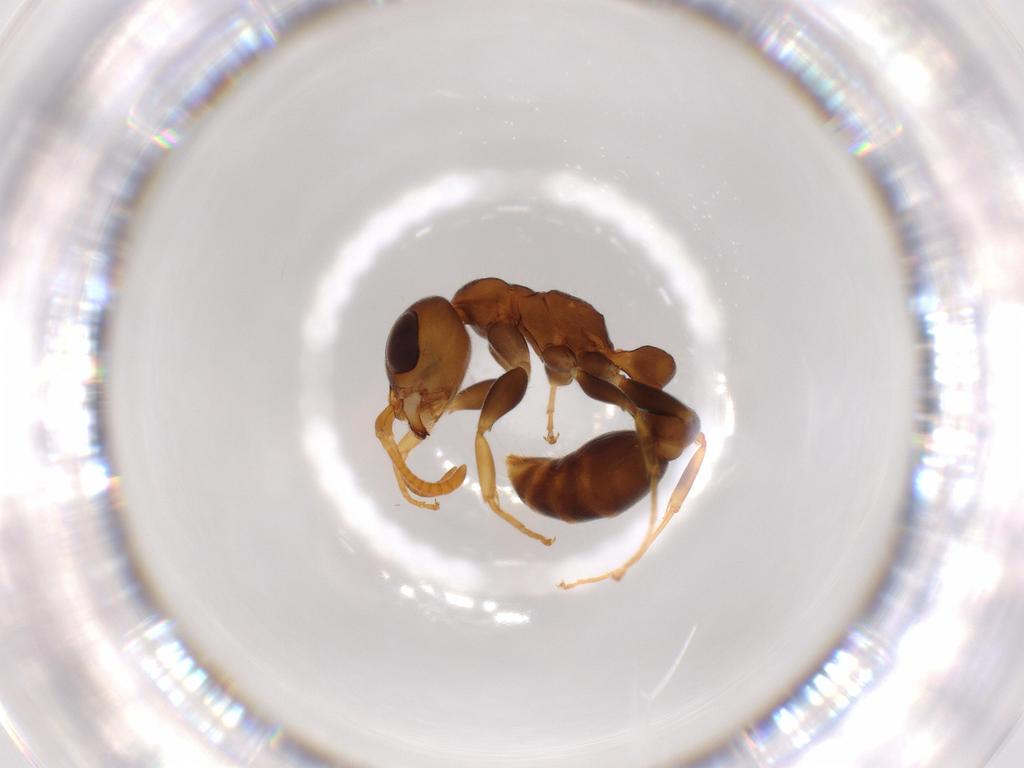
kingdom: Animalia
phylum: Arthropoda
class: Insecta
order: Hymenoptera
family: Formicidae
